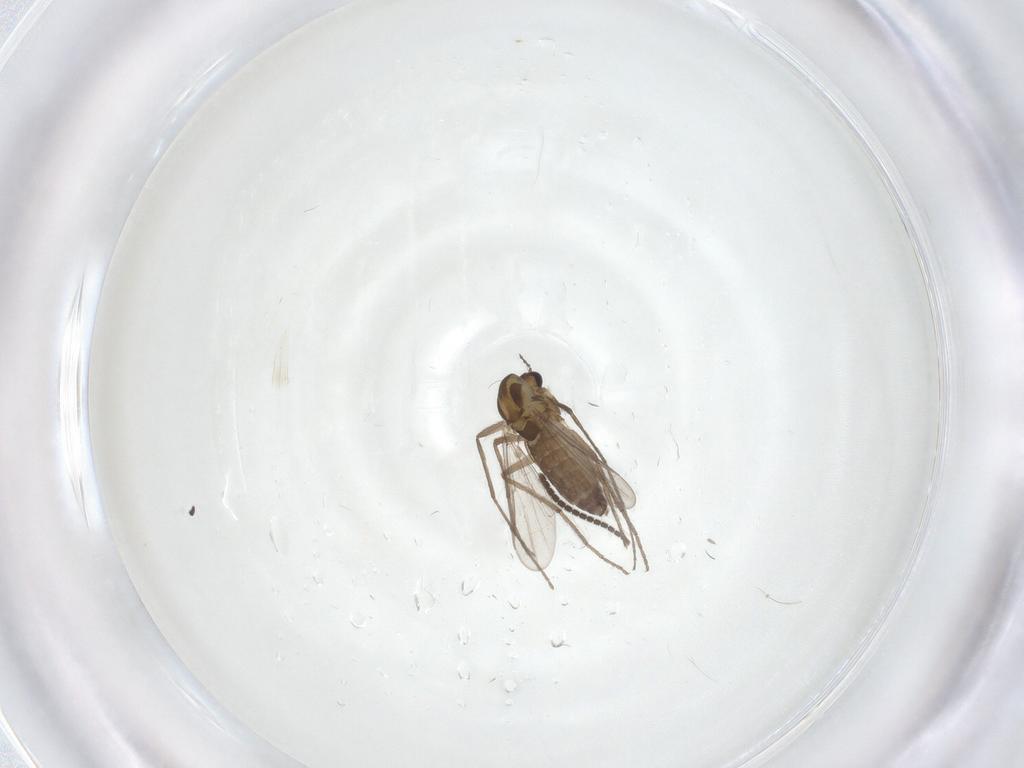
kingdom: Animalia
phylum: Arthropoda
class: Insecta
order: Diptera
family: Chironomidae
